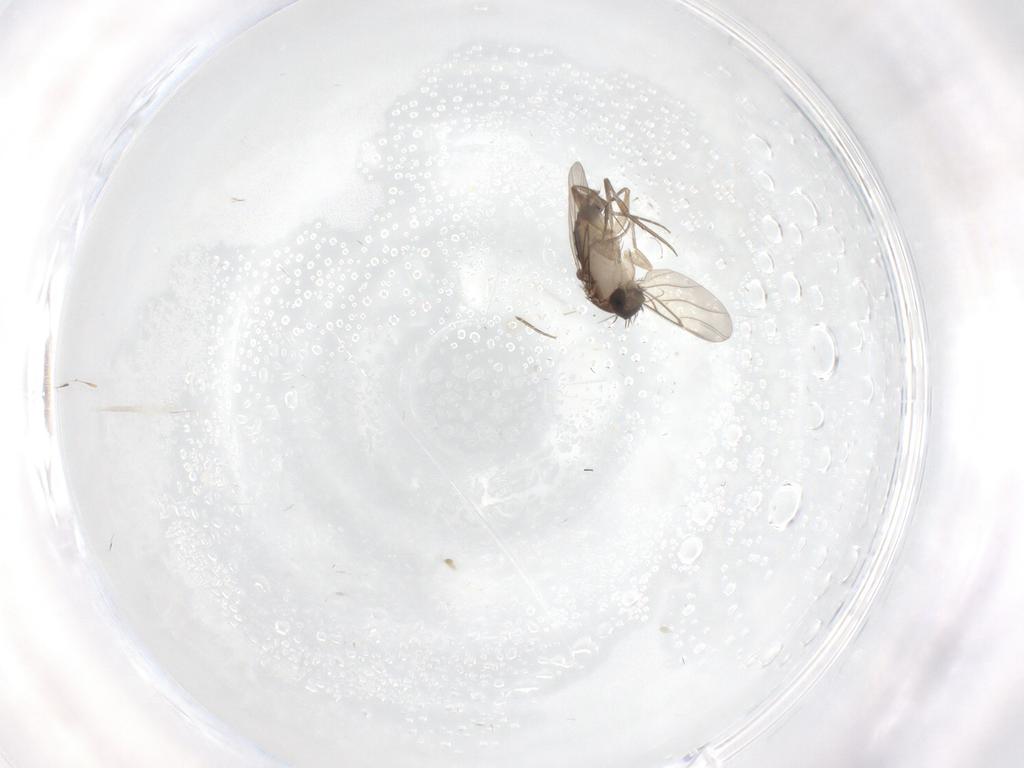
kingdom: Animalia
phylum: Arthropoda
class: Insecta
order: Diptera
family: Phoridae
